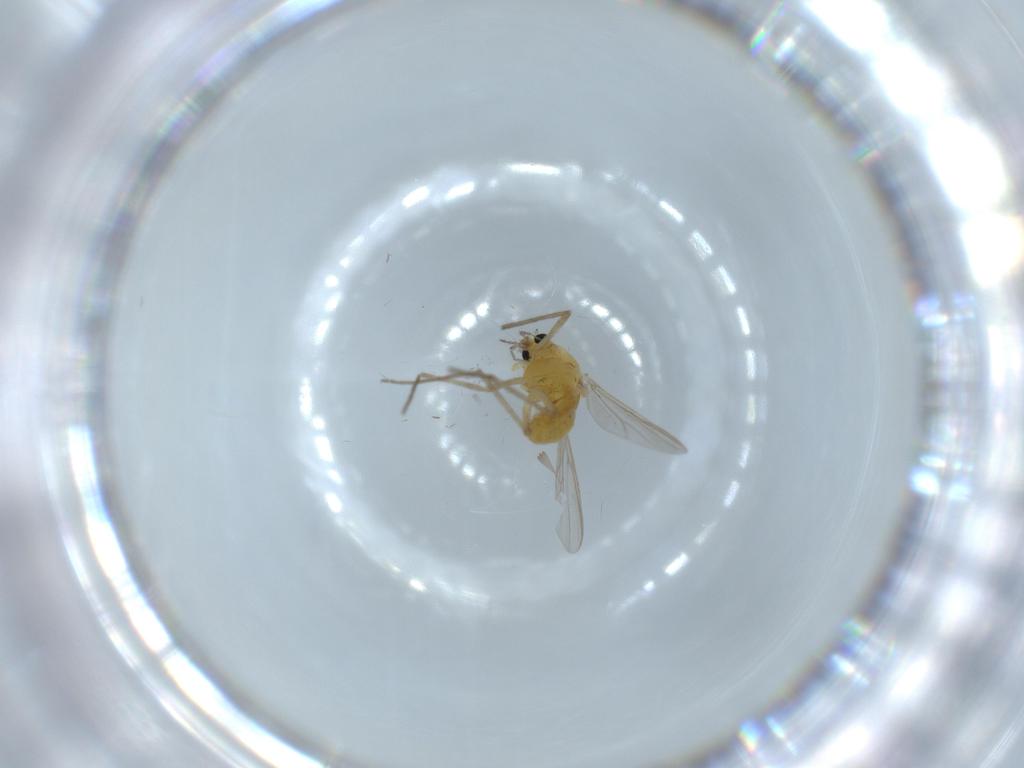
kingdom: Animalia
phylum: Arthropoda
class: Insecta
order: Diptera
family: Chironomidae
